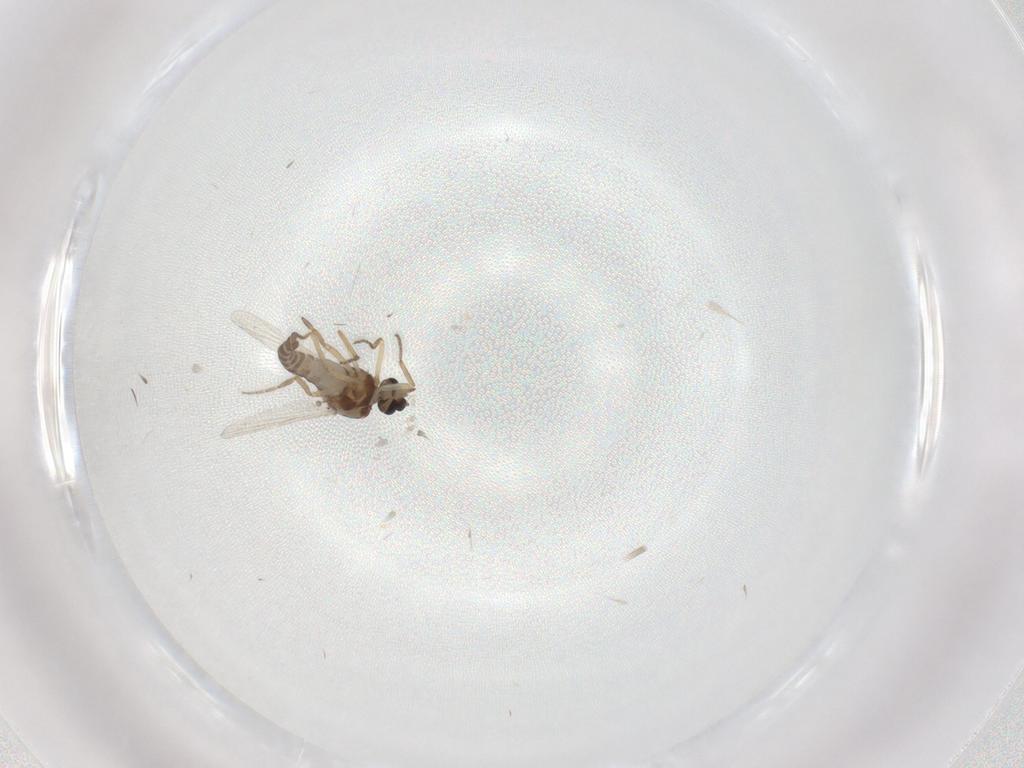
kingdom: Animalia
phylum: Arthropoda
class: Insecta
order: Diptera
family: Ceratopogonidae
